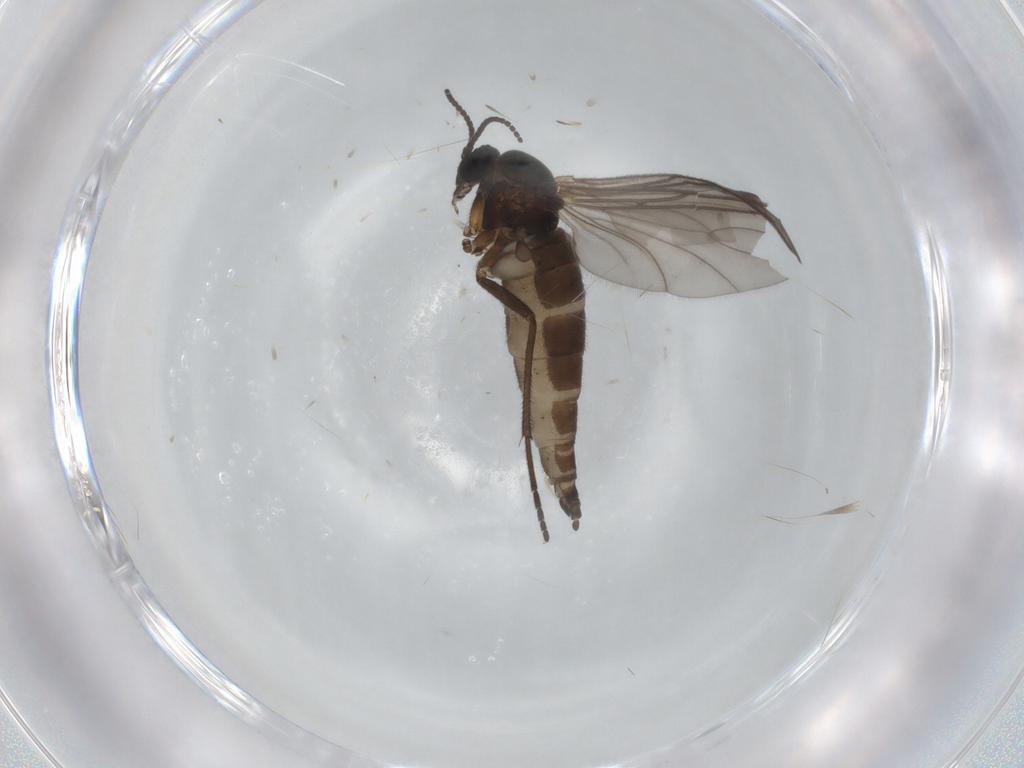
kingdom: Animalia
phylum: Arthropoda
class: Insecta
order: Diptera
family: Sciaridae
